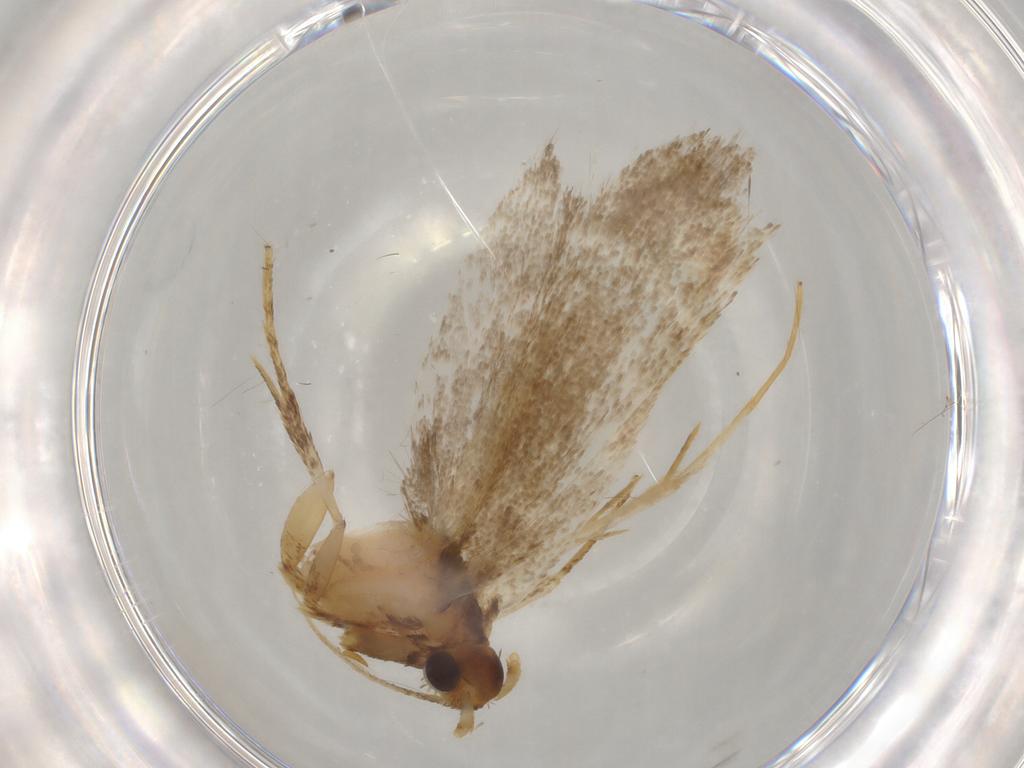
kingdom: Animalia
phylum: Arthropoda
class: Insecta
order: Lepidoptera
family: Lecithoceridae
